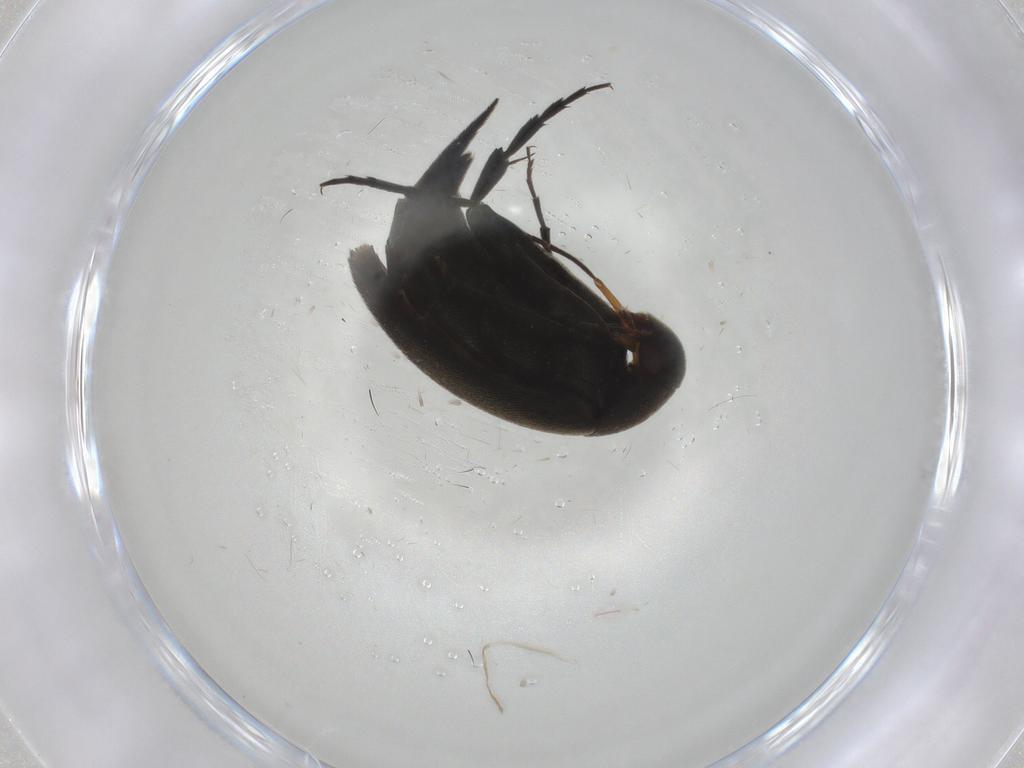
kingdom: Animalia
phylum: Arthropoda
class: Insecta
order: Coleoptera
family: Mordellidae
